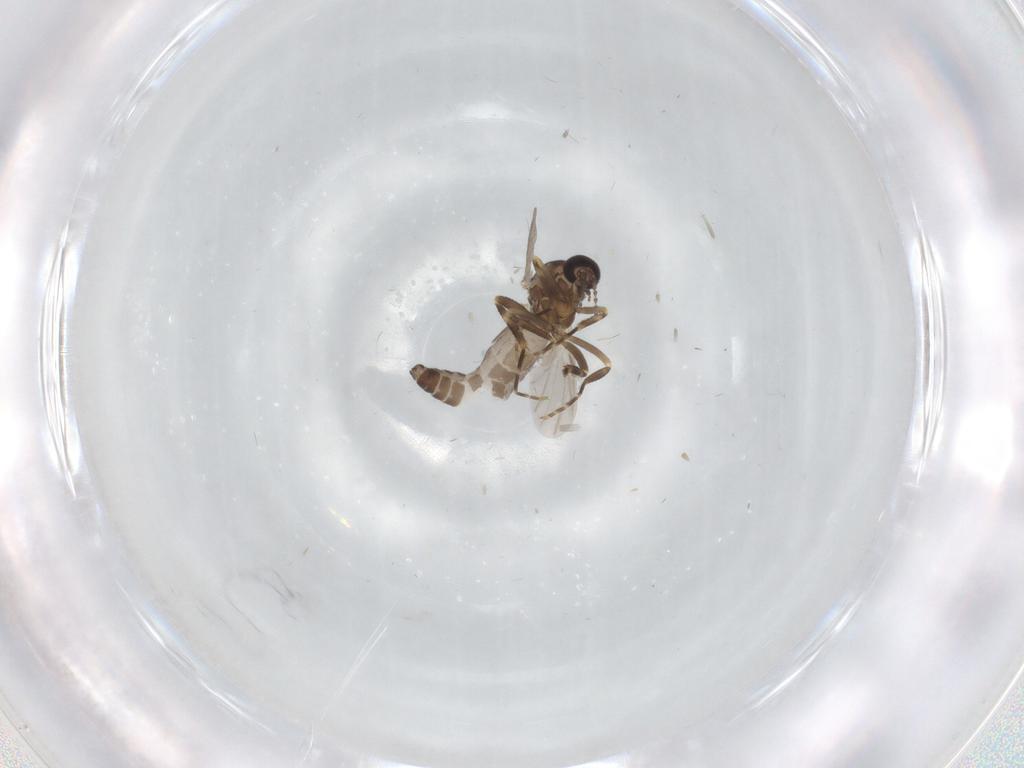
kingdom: Animalia
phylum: Arthropoda
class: Insecta
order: Diptera
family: Ceratopogonidae
